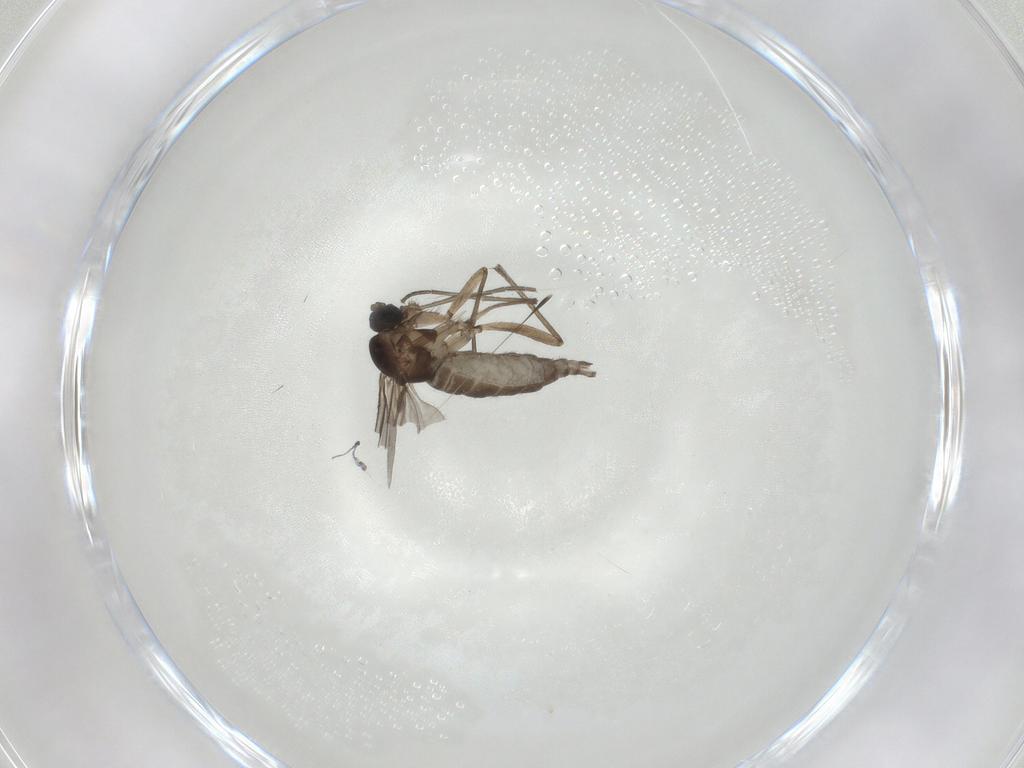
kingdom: Animalia
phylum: Arthropoda
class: Insecta
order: Diptera
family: Sciaridae
